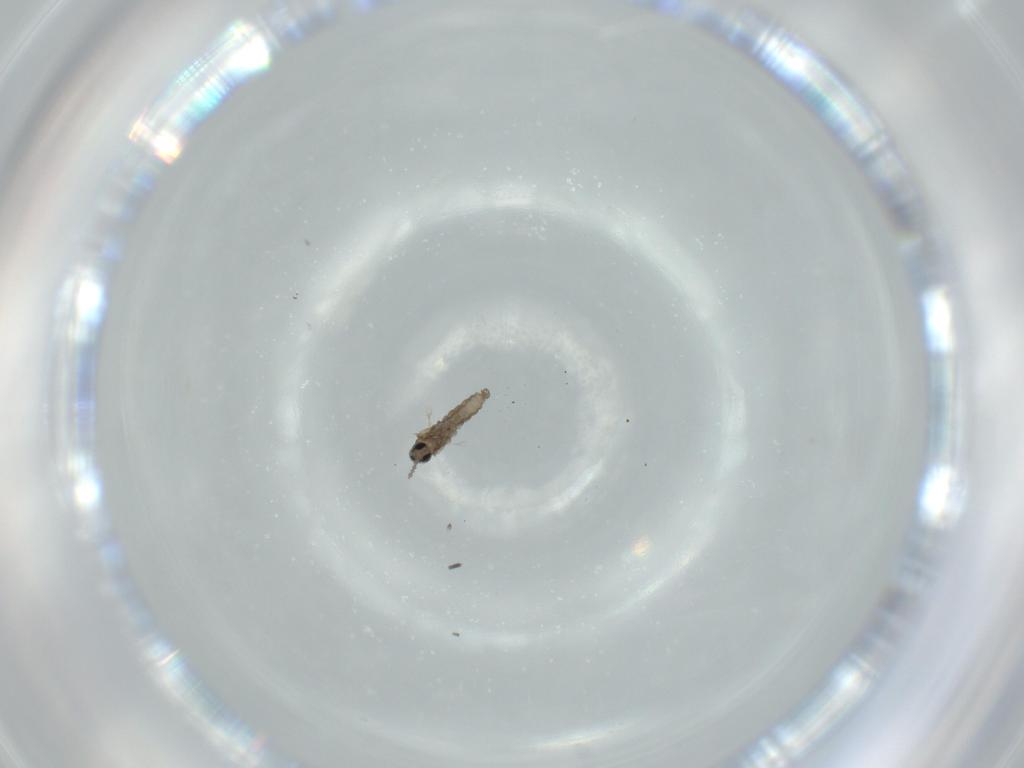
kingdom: Animalia
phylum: Arthropoda
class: Insecta
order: Diptera
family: Cecidomyiidae
